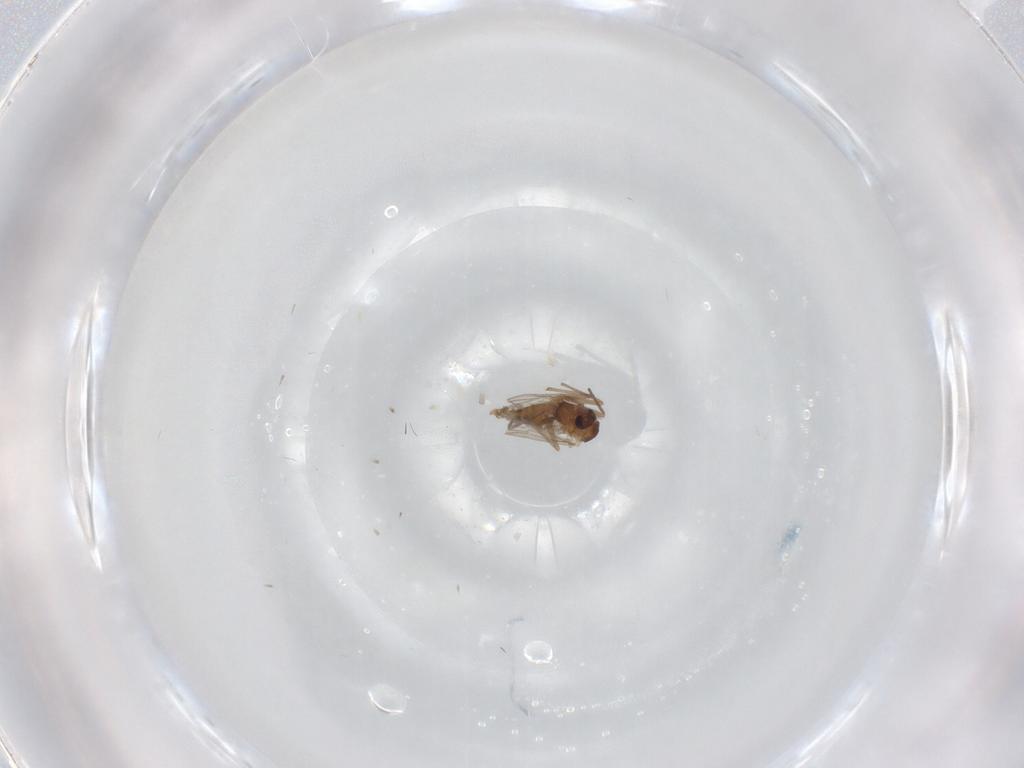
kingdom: Animalia
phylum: Arthropoda
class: Insecta
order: Diptera
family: Chironomidae
